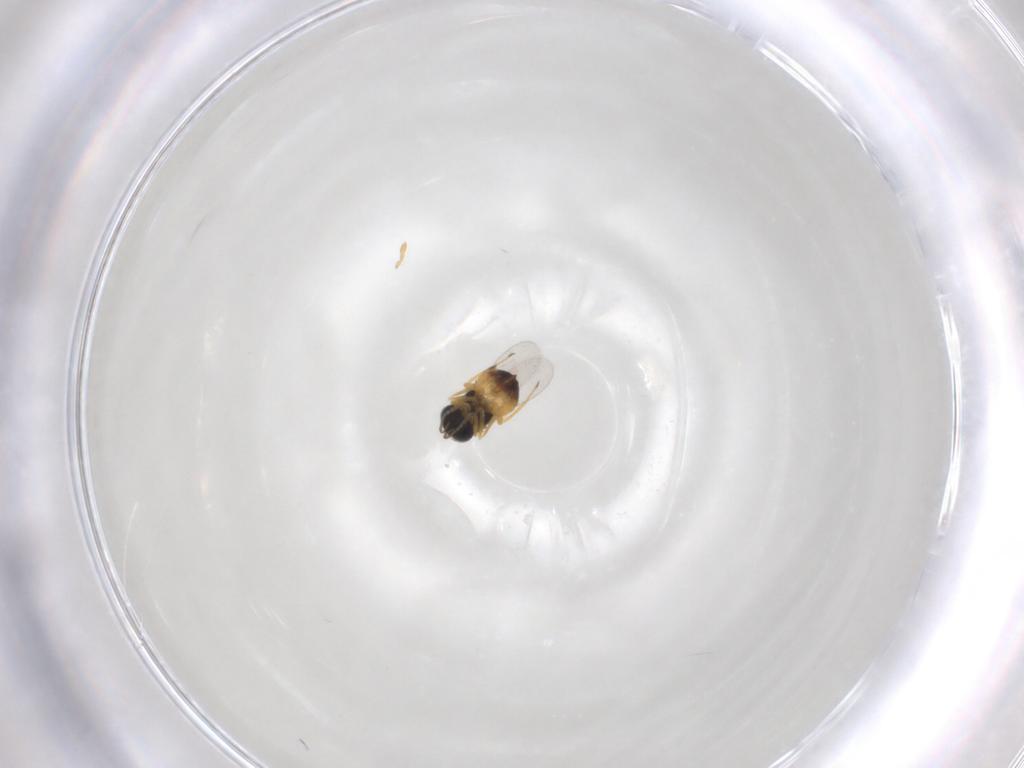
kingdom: Animalia
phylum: Arthropoda
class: Insecta
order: Hymenoptera
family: Aphelinidae
